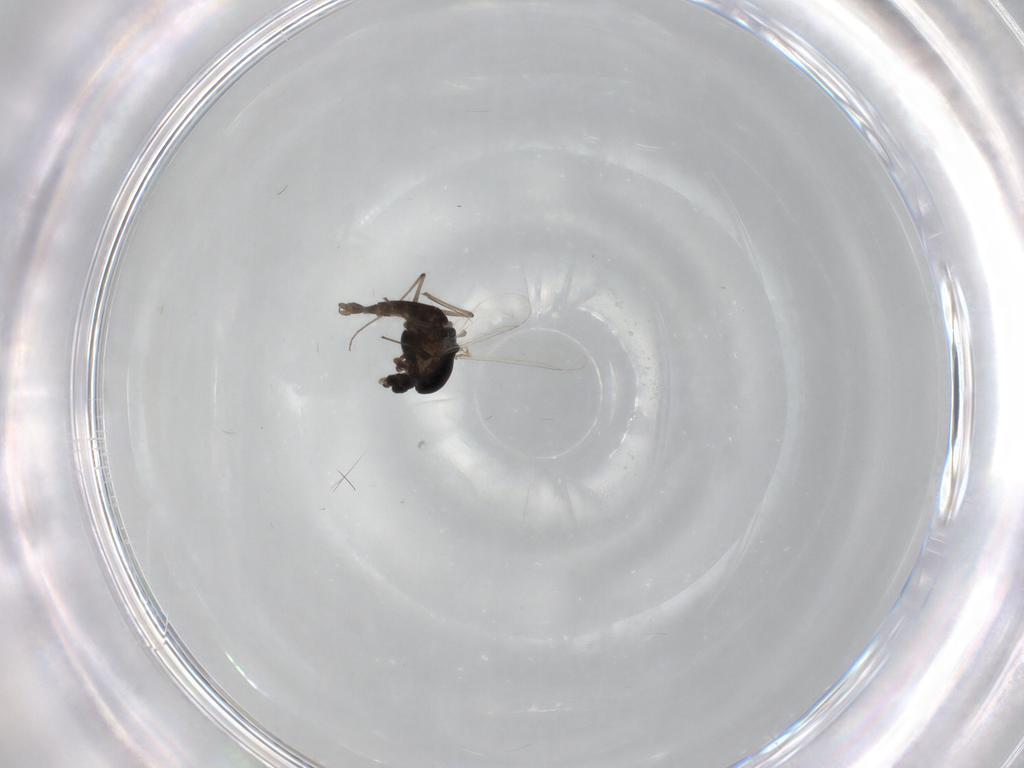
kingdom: Animalia
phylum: Arthropoda
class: Insecta
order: Diptera
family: Chironomidae
